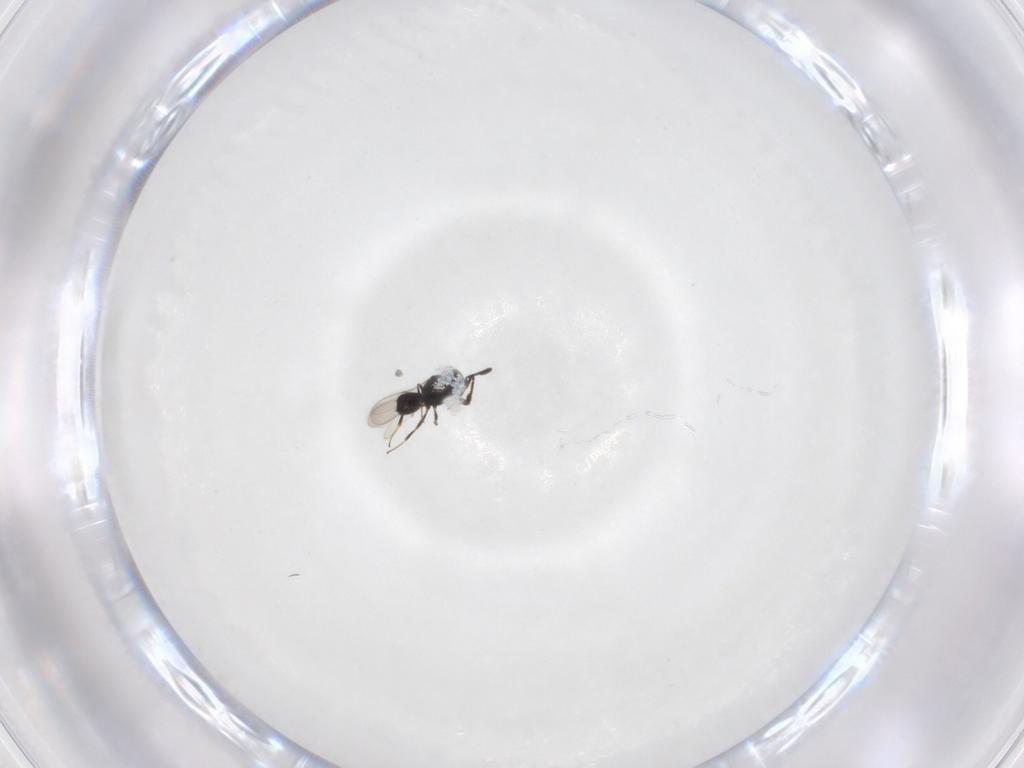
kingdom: Animalia
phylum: Arthropoda
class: Insecta
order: Hymenoptera
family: Scelionidae
